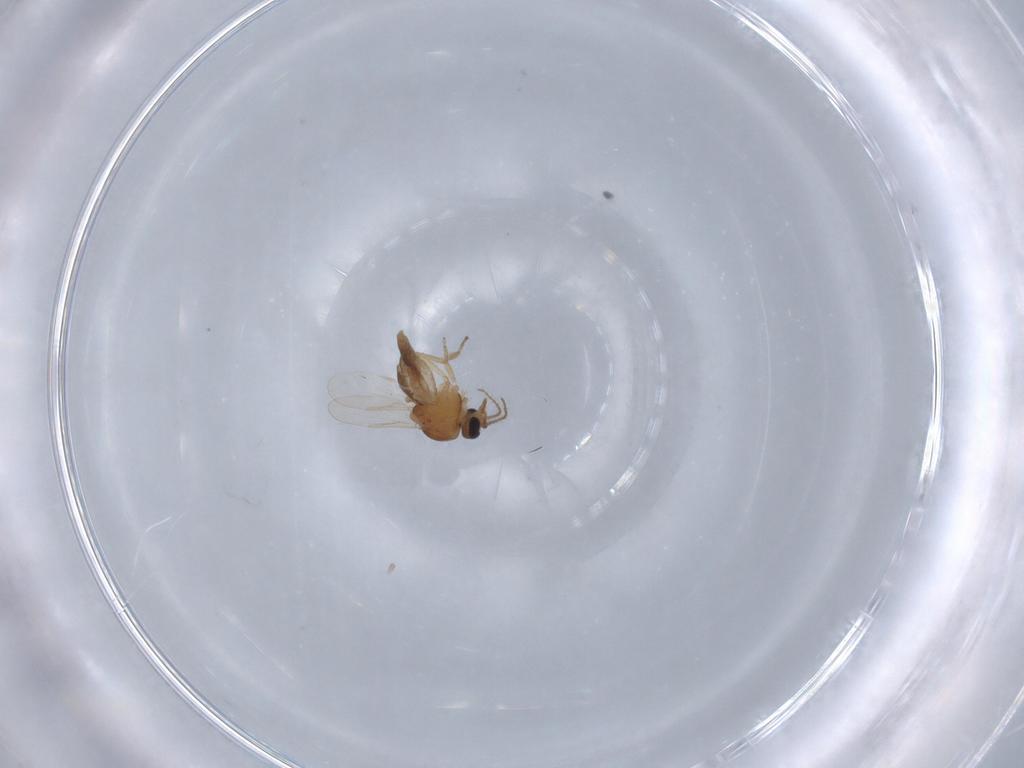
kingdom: Animalia
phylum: Arthropoda
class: Insecta
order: Diptera
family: Ceratopogonidae
